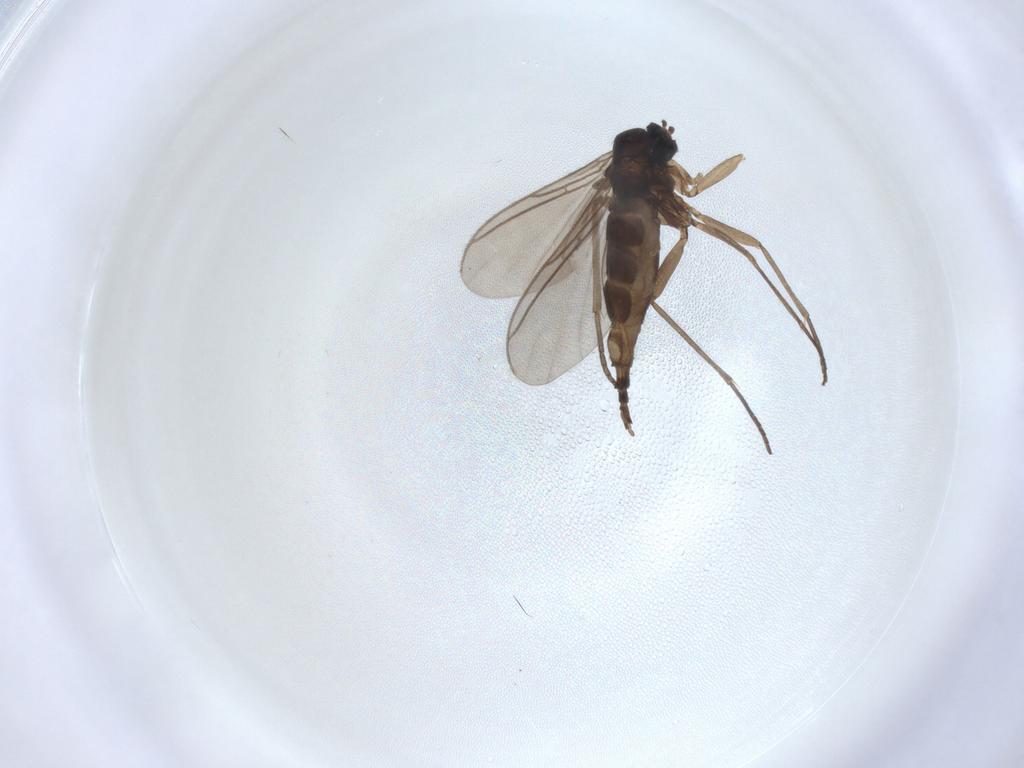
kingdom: Animalia
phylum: Arthropoda
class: Insecta
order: Diptera
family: Sciaridae
